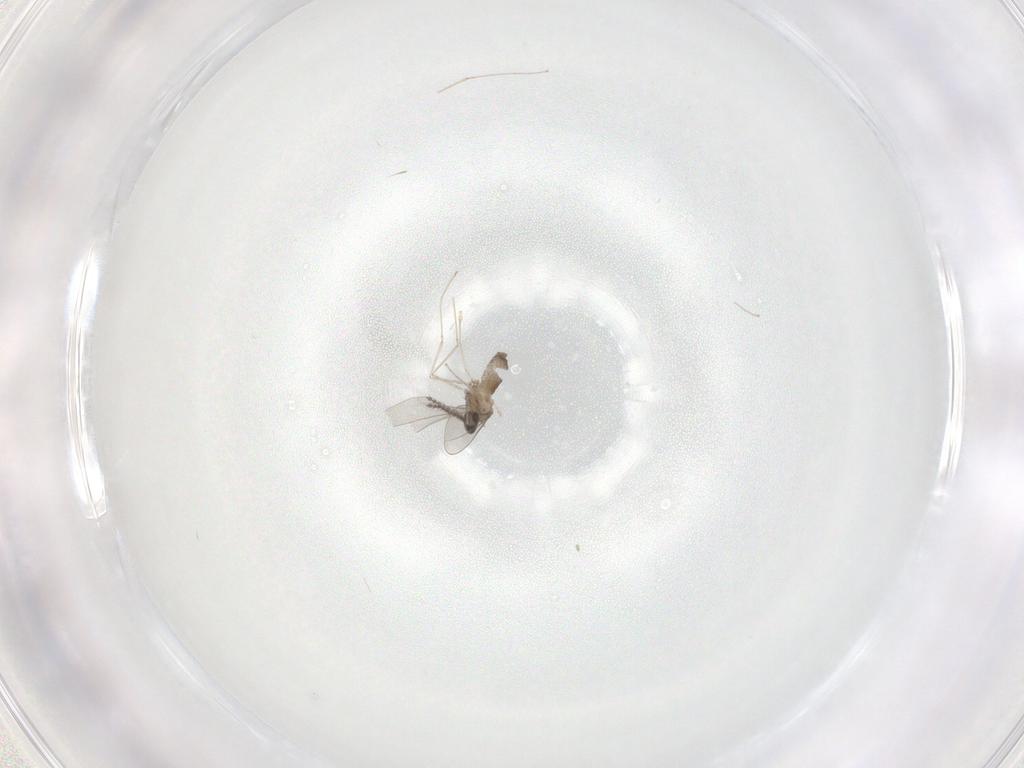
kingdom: Animalia
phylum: Arthropoda
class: Insecta
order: Diptera
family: Cecidomyiidae
